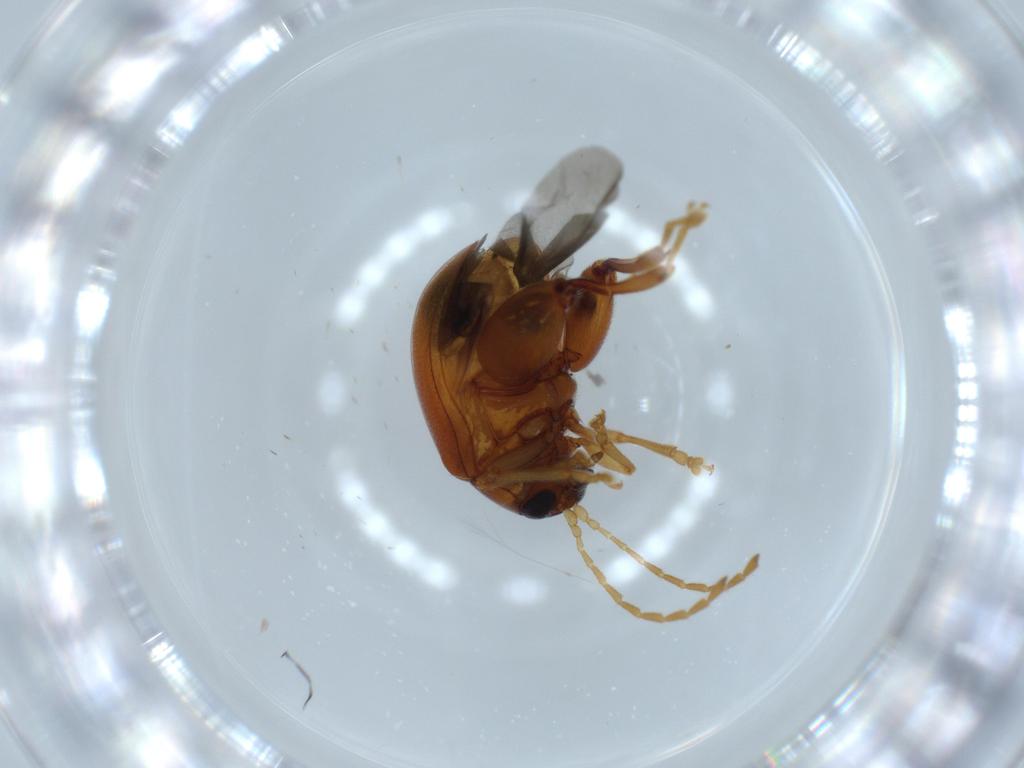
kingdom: Animalia
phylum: Arthropoda
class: Insecta
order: Coleoptera
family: Chrysomelidae
